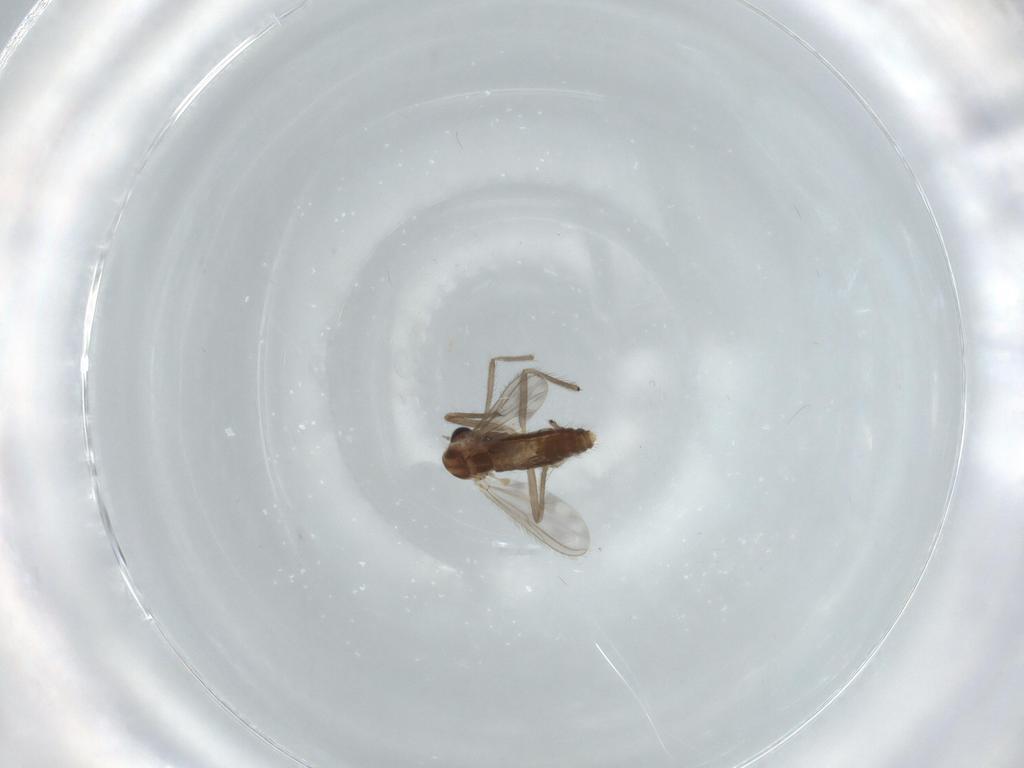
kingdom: Animalia
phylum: Arthropoda
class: Insecta
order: Diptera
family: Chironomidae
